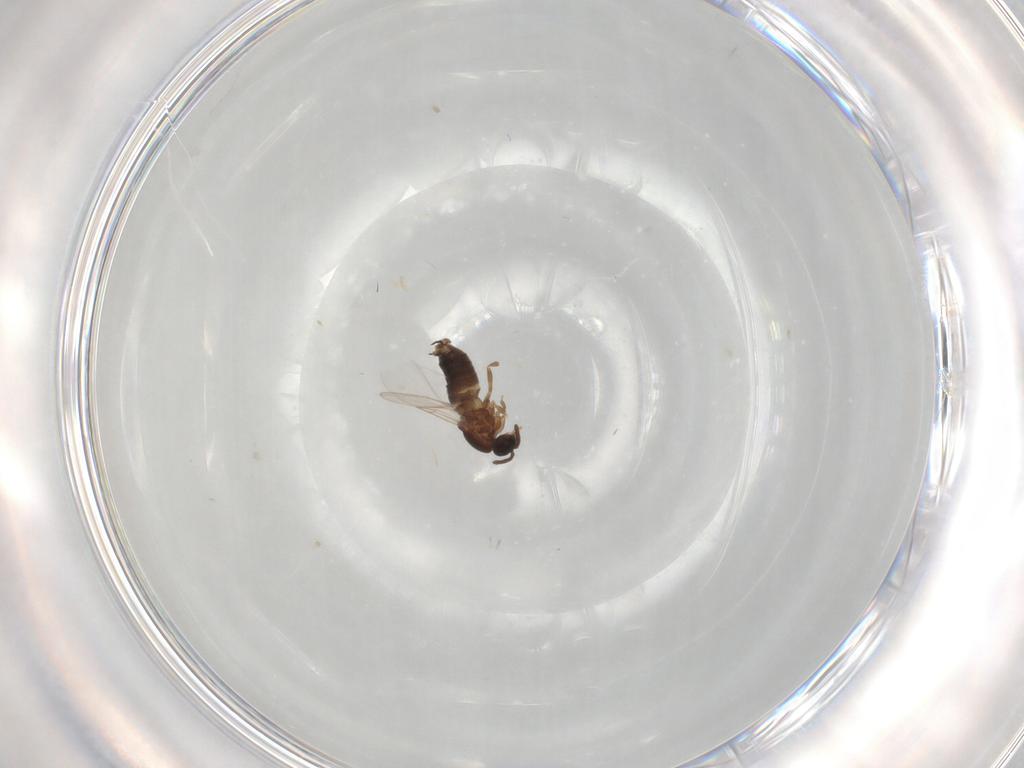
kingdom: Animalia
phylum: Arthropoda
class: Insecta
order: Diptera
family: Scatopsidae
